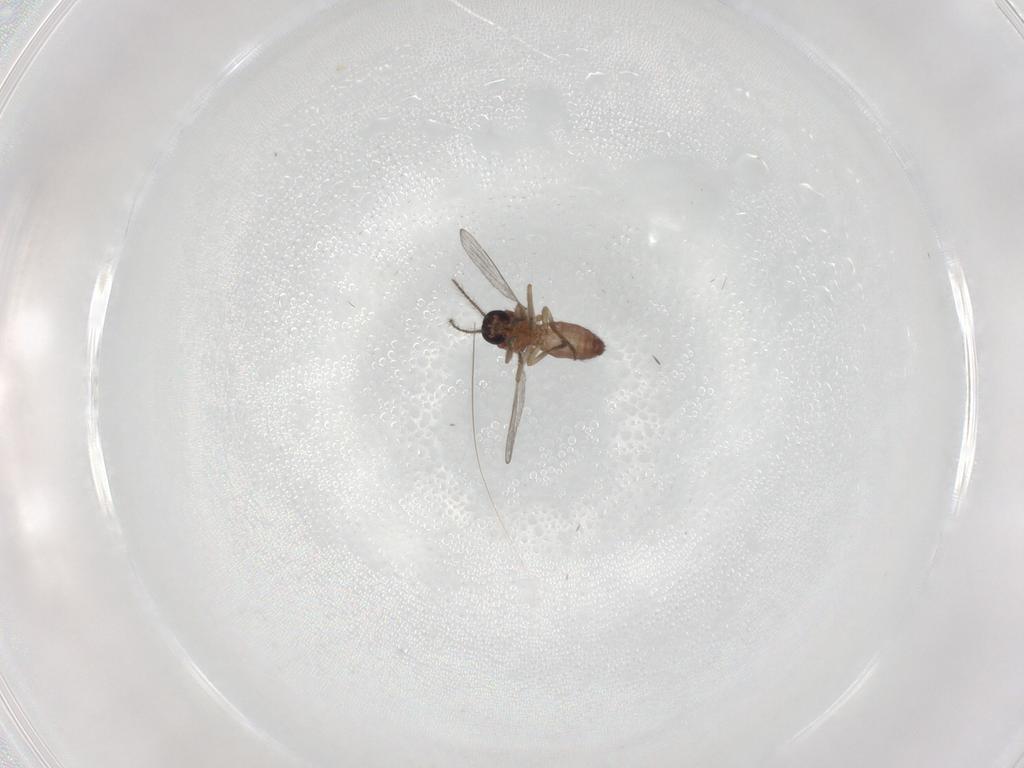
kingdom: Animalia
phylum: Arthropoda
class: Insecta
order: Diptera
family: Ceratopogonidae
